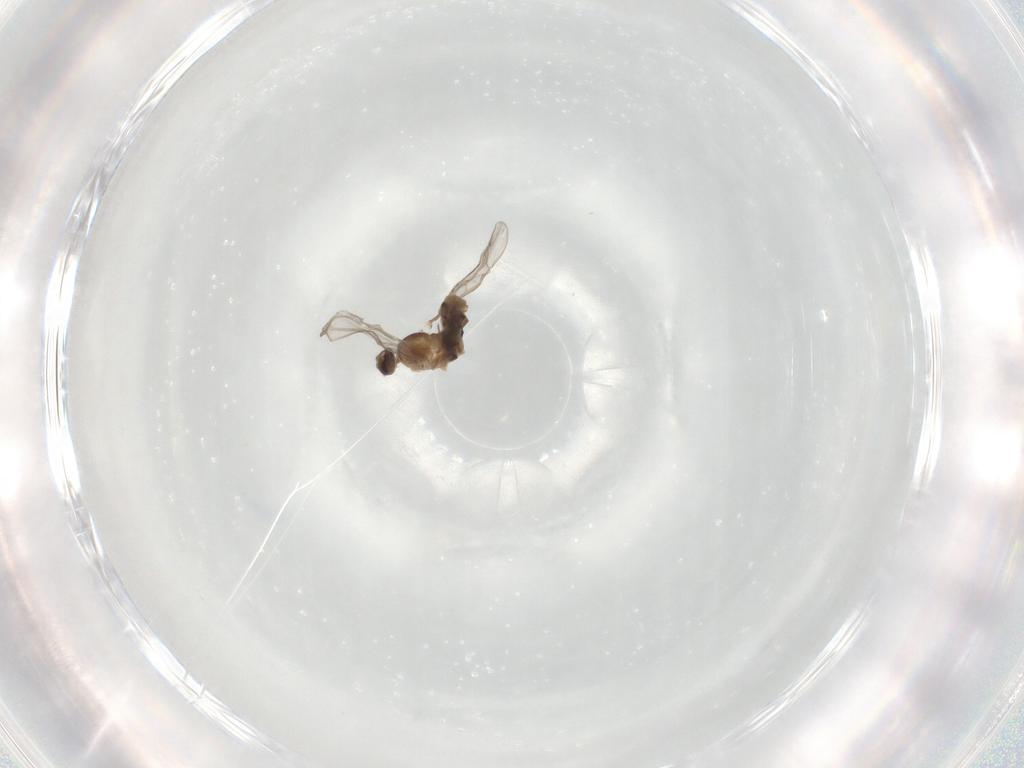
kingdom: Animalia
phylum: Arthropoda
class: Insecta
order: Diptera
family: Cecidomyiidae
